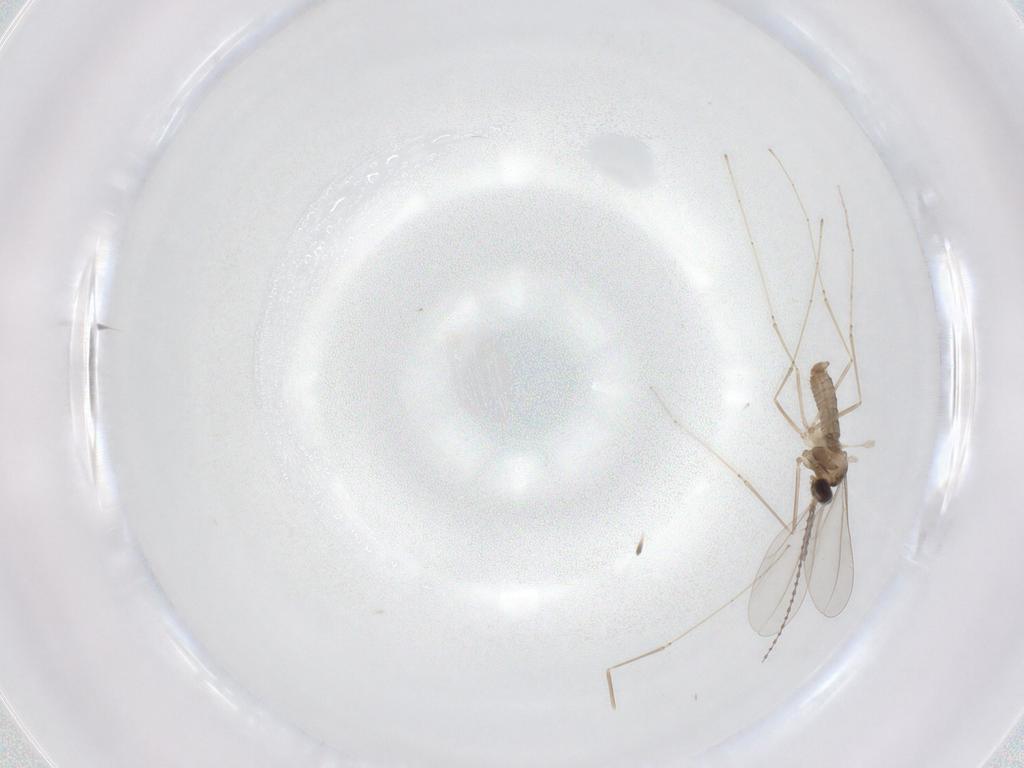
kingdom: Animalia
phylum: Arthropoda
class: Insecta
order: Diptera
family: Cecidomyiidae
